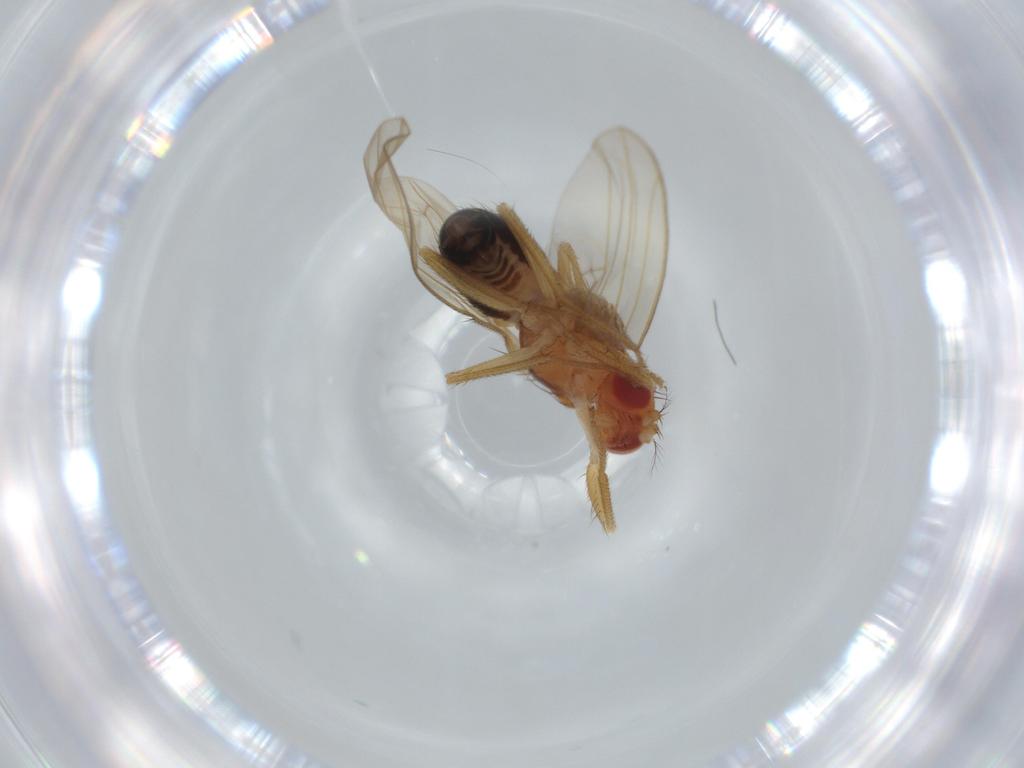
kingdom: Animalia
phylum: Arthropoda
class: Insecta
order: Diptera
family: Drosophilidae
